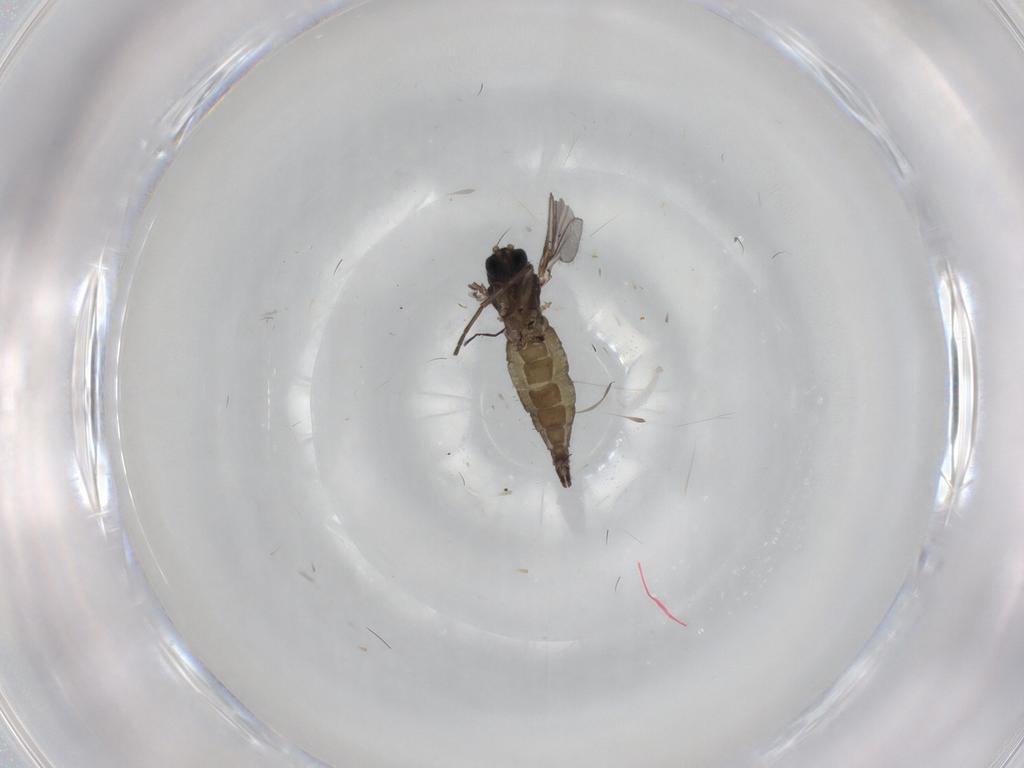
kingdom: Animalia
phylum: Arthropoda
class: Insecta
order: Diptera
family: Sciaridae
